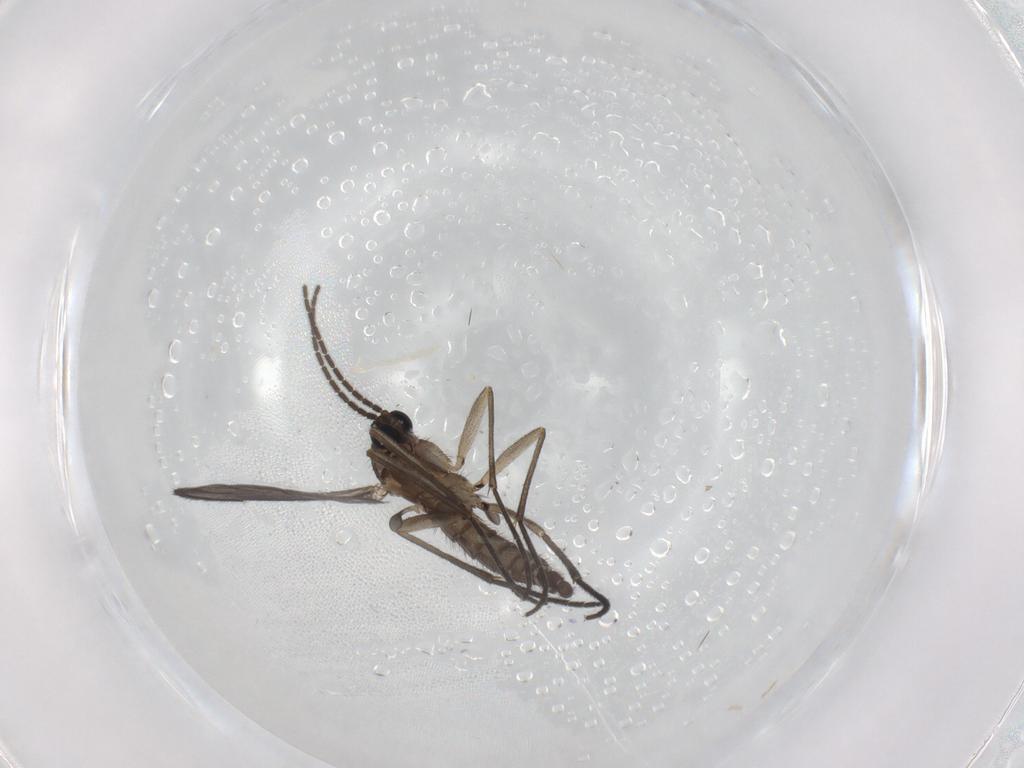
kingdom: Animalia
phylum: Arthropoda
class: Insecta
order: Diptera
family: Sciaridae
